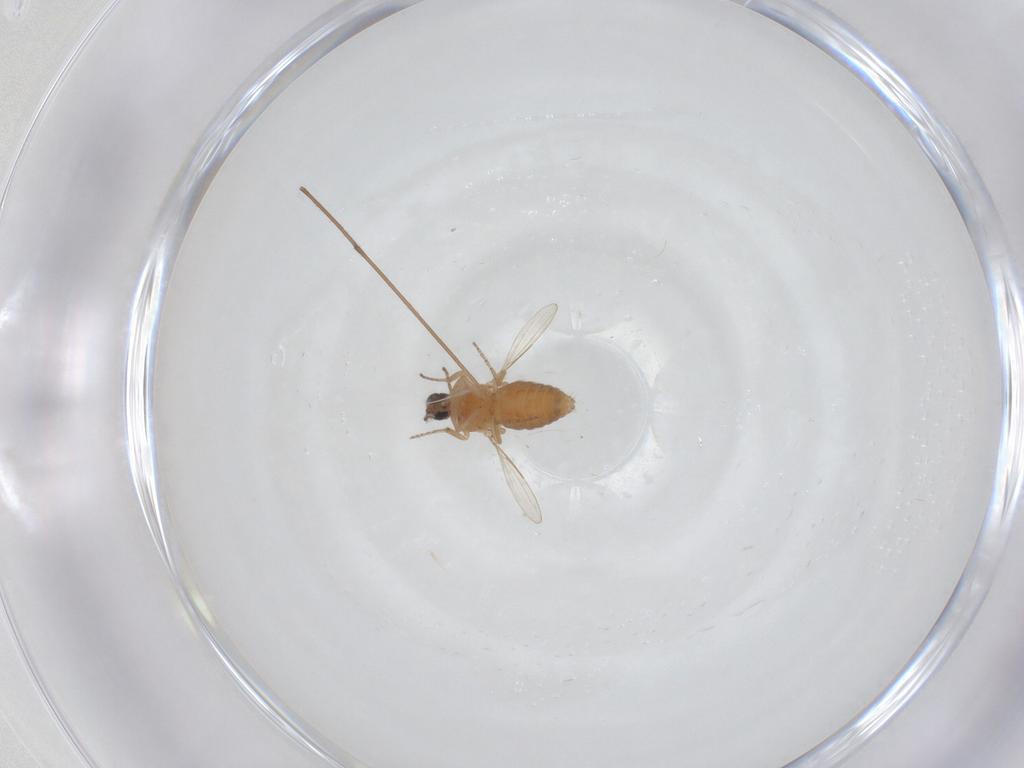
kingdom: Animalia
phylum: Arthropoda
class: Insecta
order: Diptera
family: Ceratopogonidae
